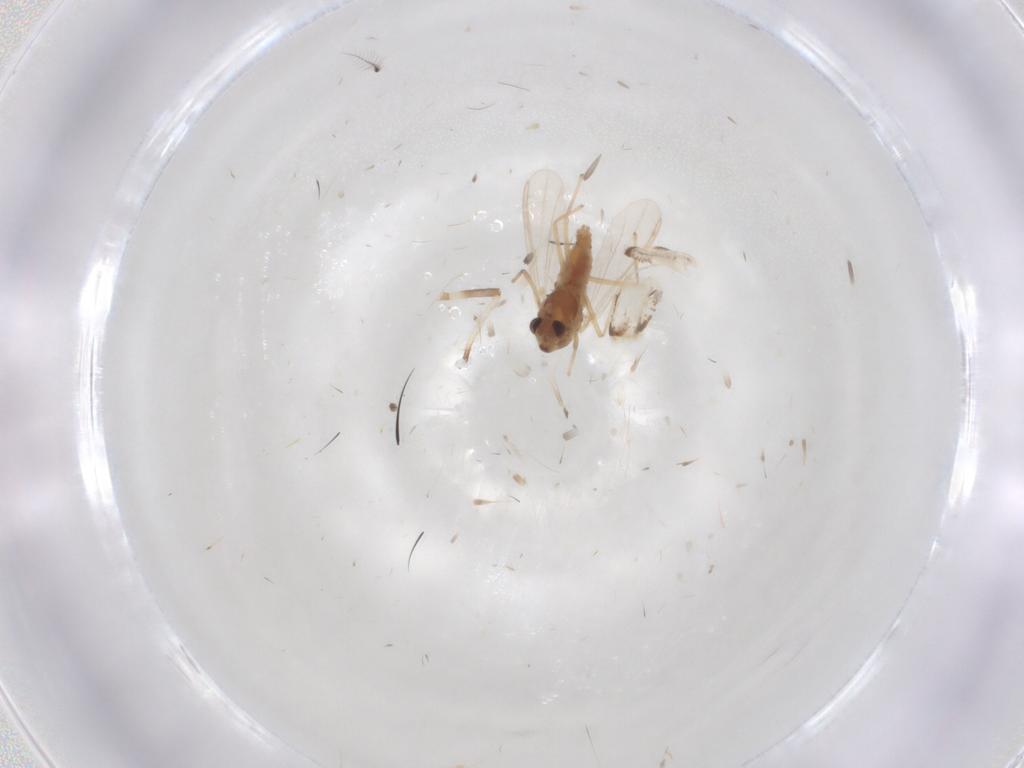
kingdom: Animalia
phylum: Arthropoda
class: Insecta
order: Diptera
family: Chironomidae
